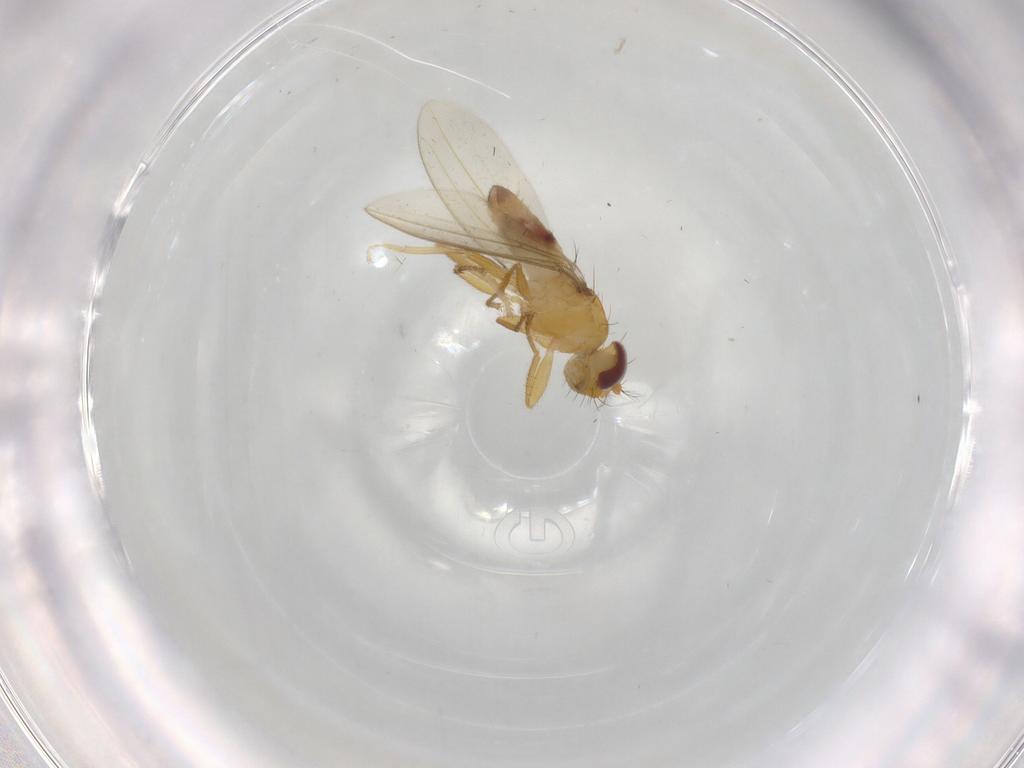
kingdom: Animalia
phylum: Arthropoda
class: Insecta
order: Diptera
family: Periscelididae
